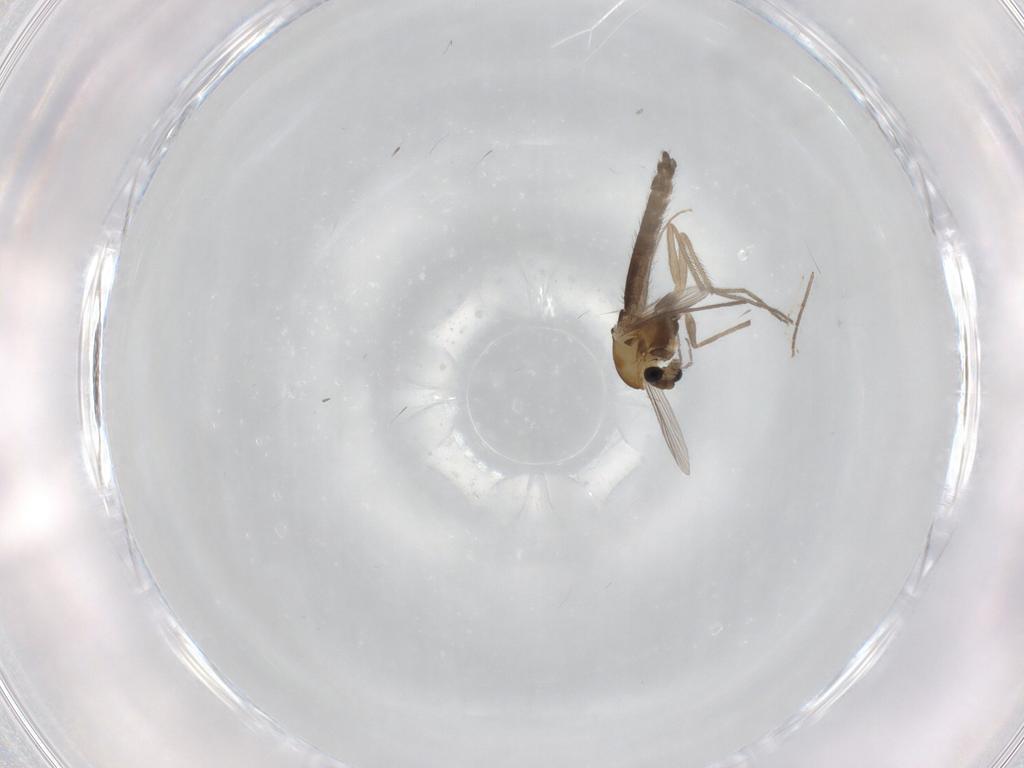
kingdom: Animalia
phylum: Arthropoda
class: Insecta
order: Diptera
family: Chironomidae
